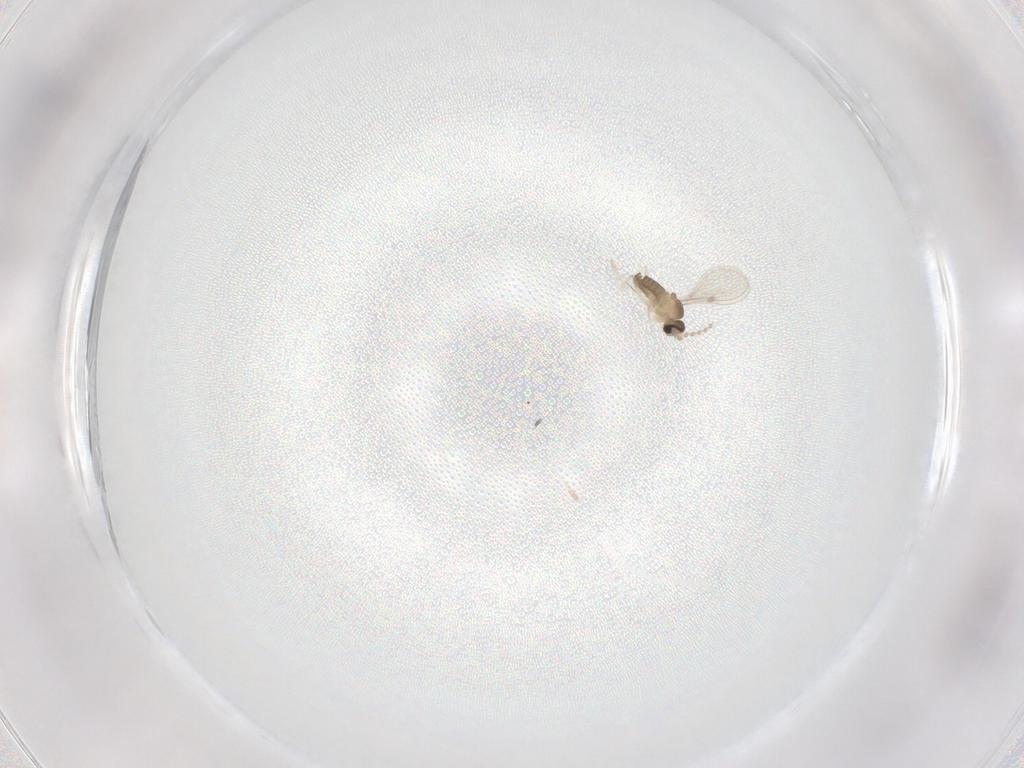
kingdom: Animalia
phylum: Arthropoda
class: Insecta
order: Diptera
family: Cecidomyiidae
